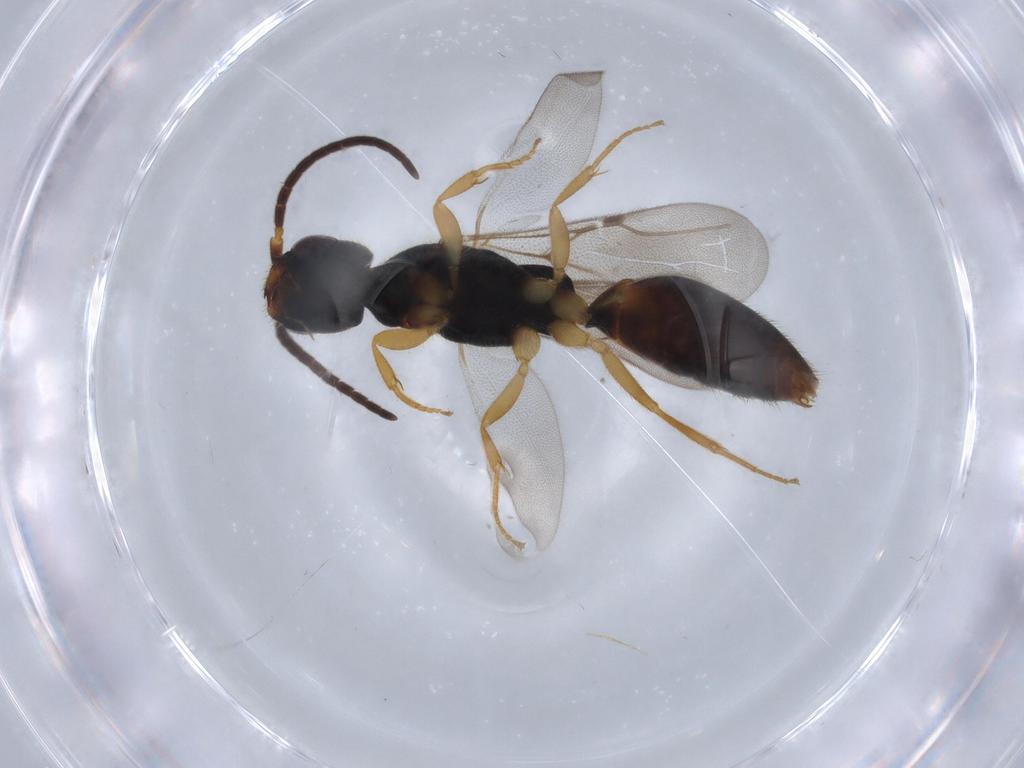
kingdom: Animalia
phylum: Arthropoda
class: Insecta
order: Hymenoptera
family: Bethylidae
